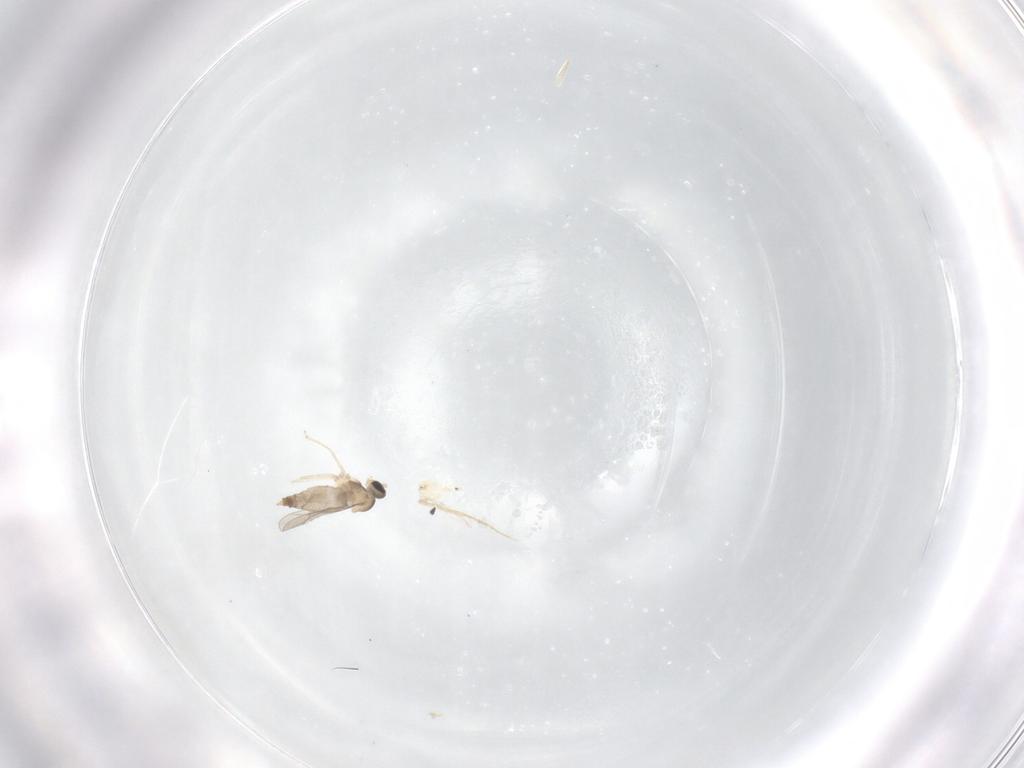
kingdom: Animalia
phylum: Arthropoda
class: Insecta
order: Diptera
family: Cecidomyiidae
